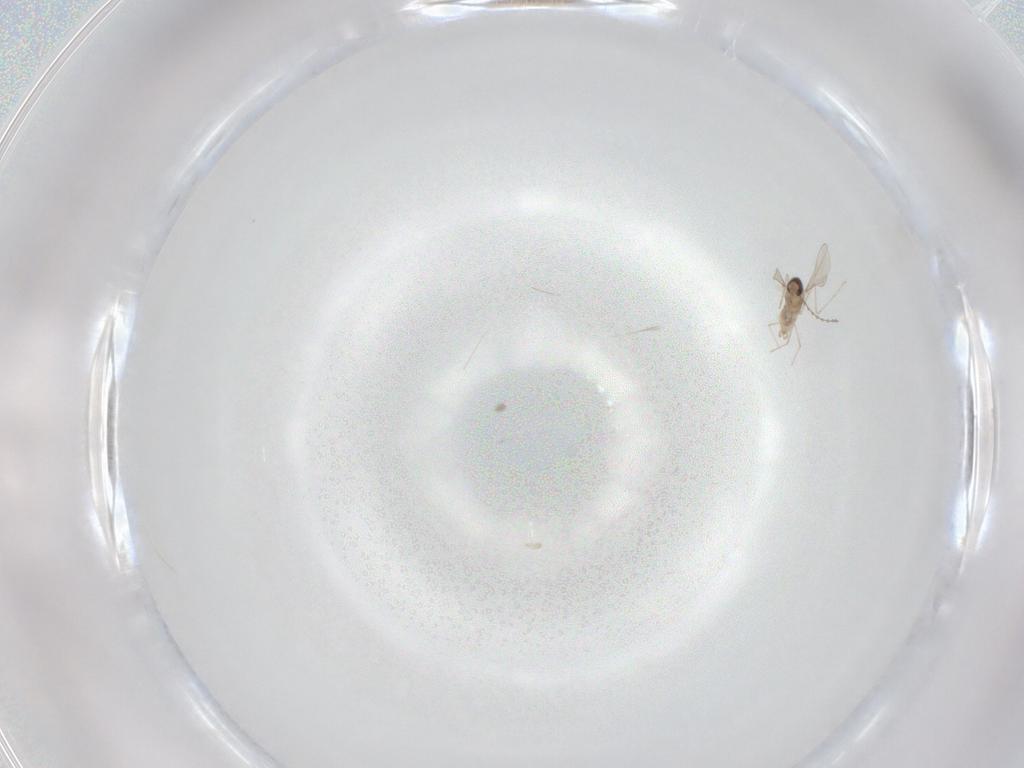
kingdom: Animalia
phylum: Arthropoda
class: Insecta
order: Diptera
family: Cecidomyiidae
